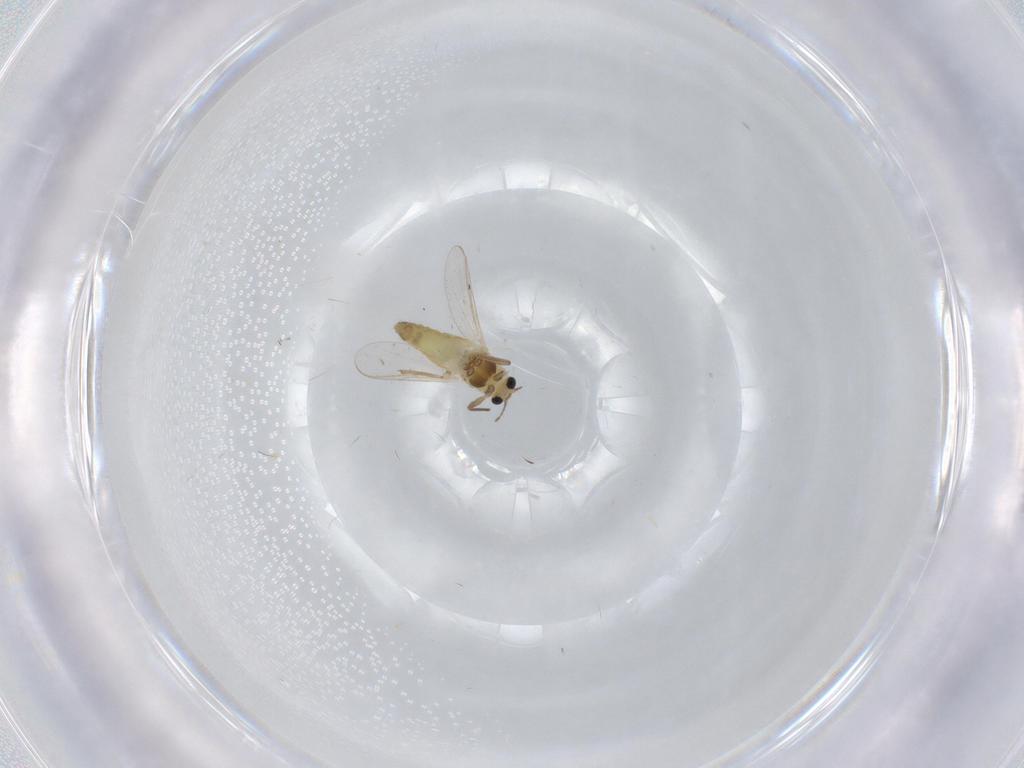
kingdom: Animalia
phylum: Arthropoda
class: Insecta
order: Diptera
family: Chironomidae
